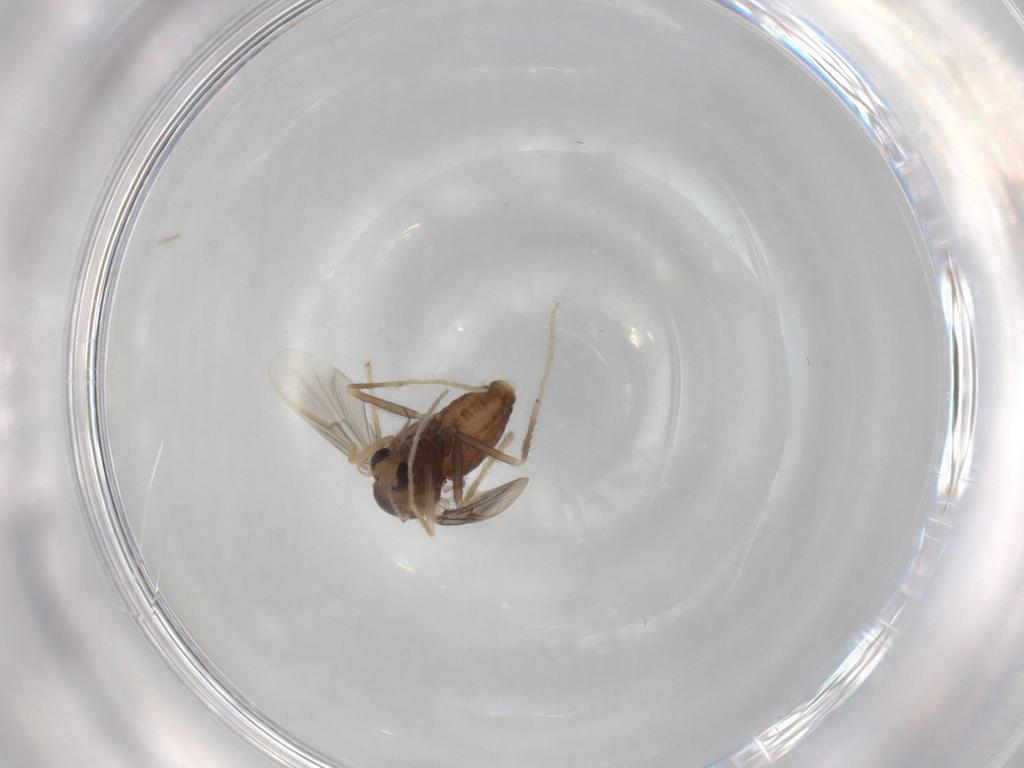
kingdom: Animalia
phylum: Arthropoda
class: Insecta
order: Diptera
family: Chironomidae
